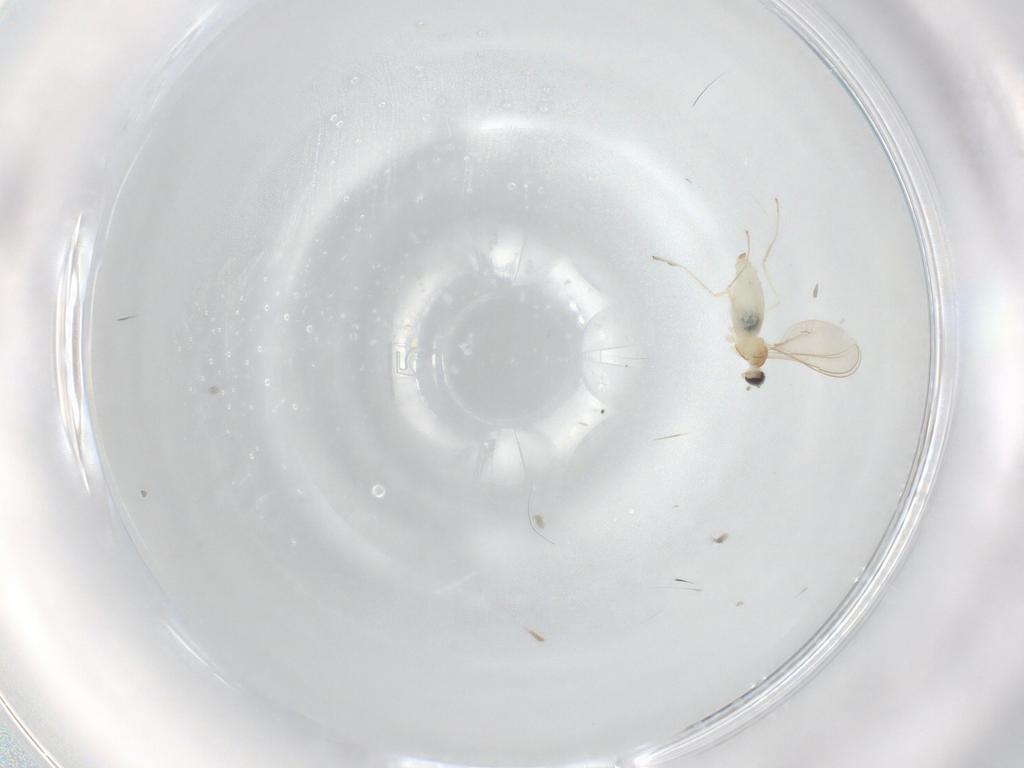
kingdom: Animalia
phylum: Arthropoda
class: Insecta
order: Diptera
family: Cecidomyiidae
